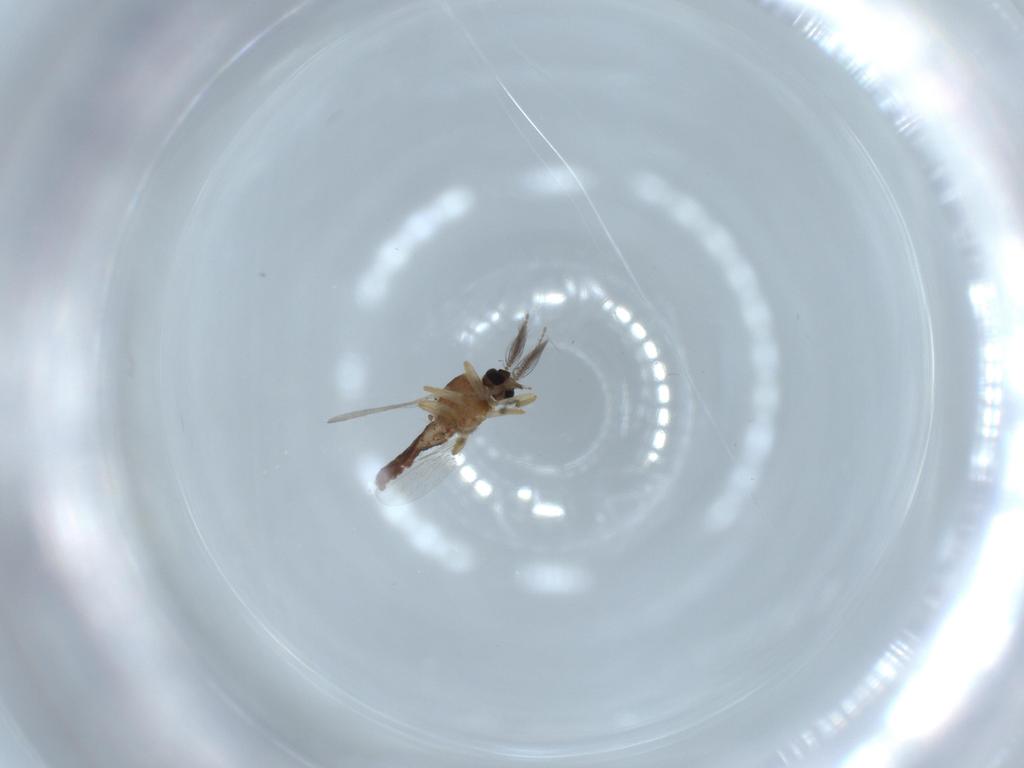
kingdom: Animalia
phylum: Arthropoda
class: Insecta
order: Diptera
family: Ceratopogonidae
